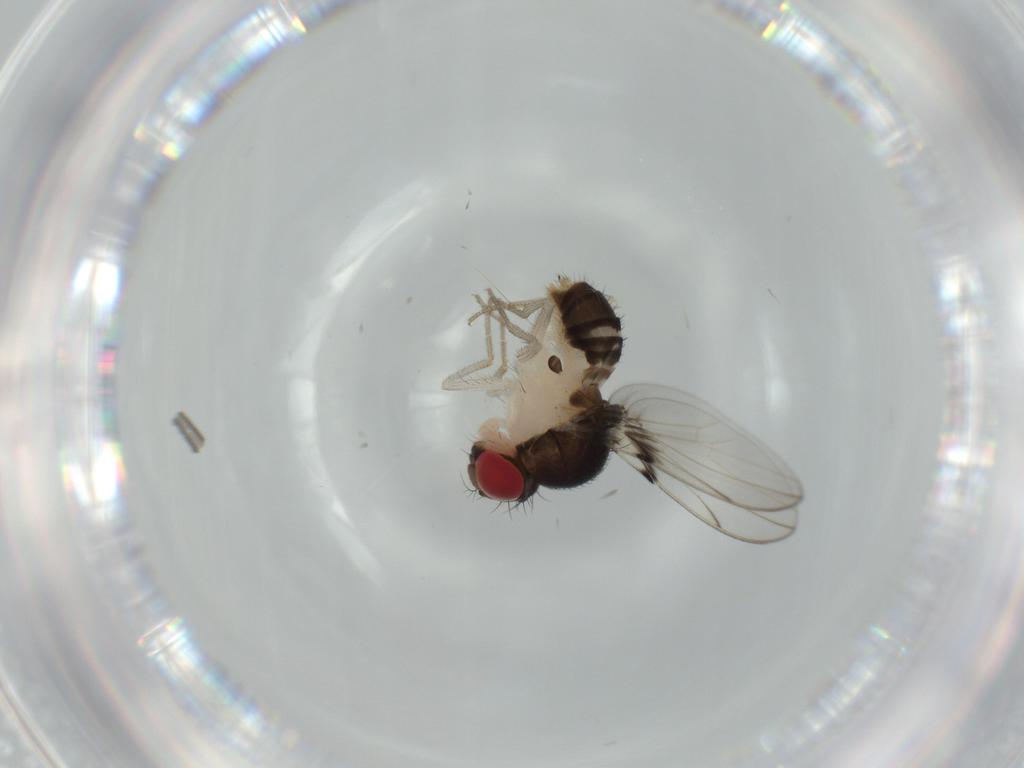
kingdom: Animalia
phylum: Arthropoda
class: Insecta
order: Diptera
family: Drosophilidae
